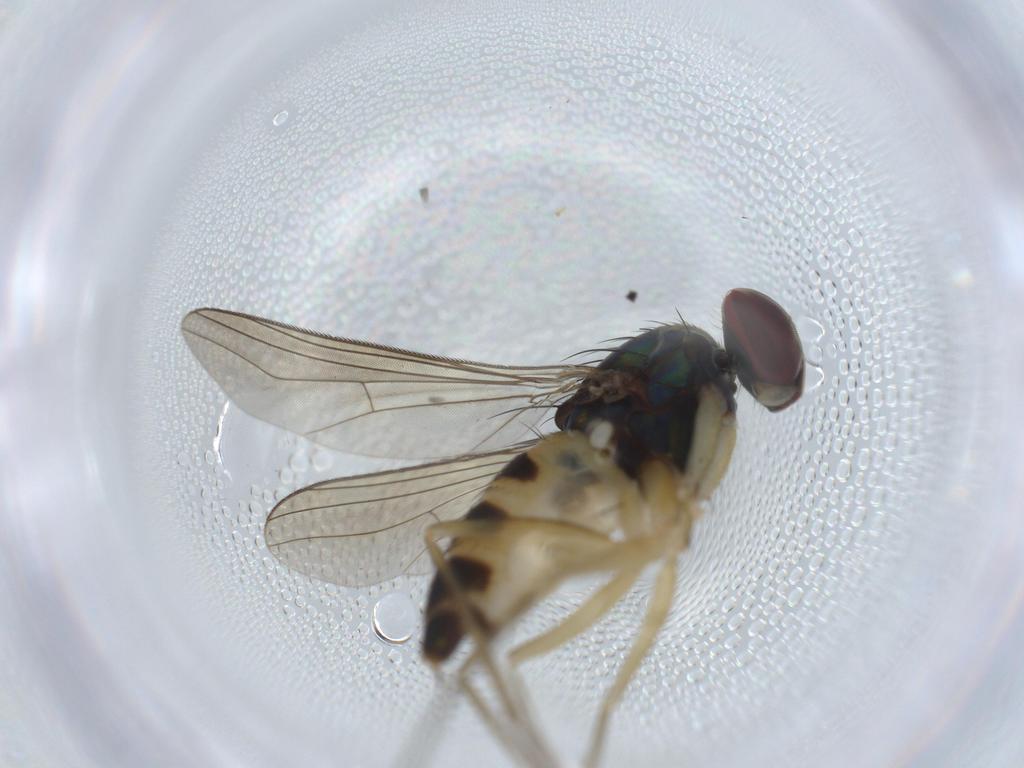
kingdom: Animalia
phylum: Arthropoda
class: Insecta
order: Diptera
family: Dolichopodidae
